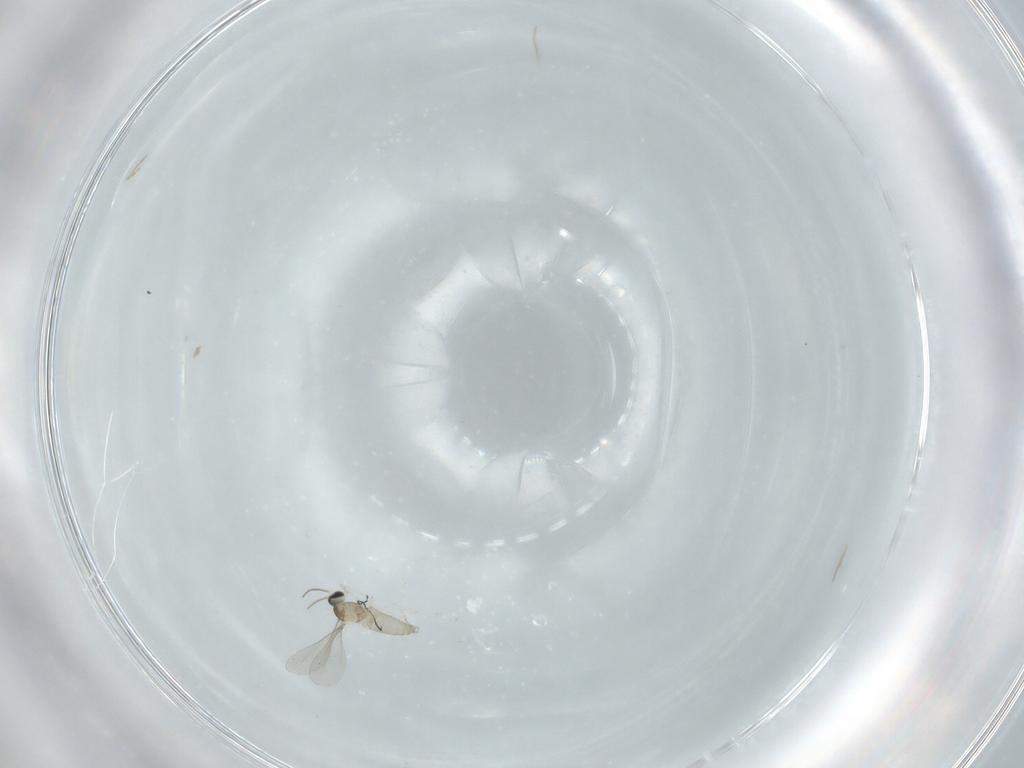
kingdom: Animalia
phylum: Arthropoda
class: Insecta
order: Diptera
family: Cecidomyiidae
